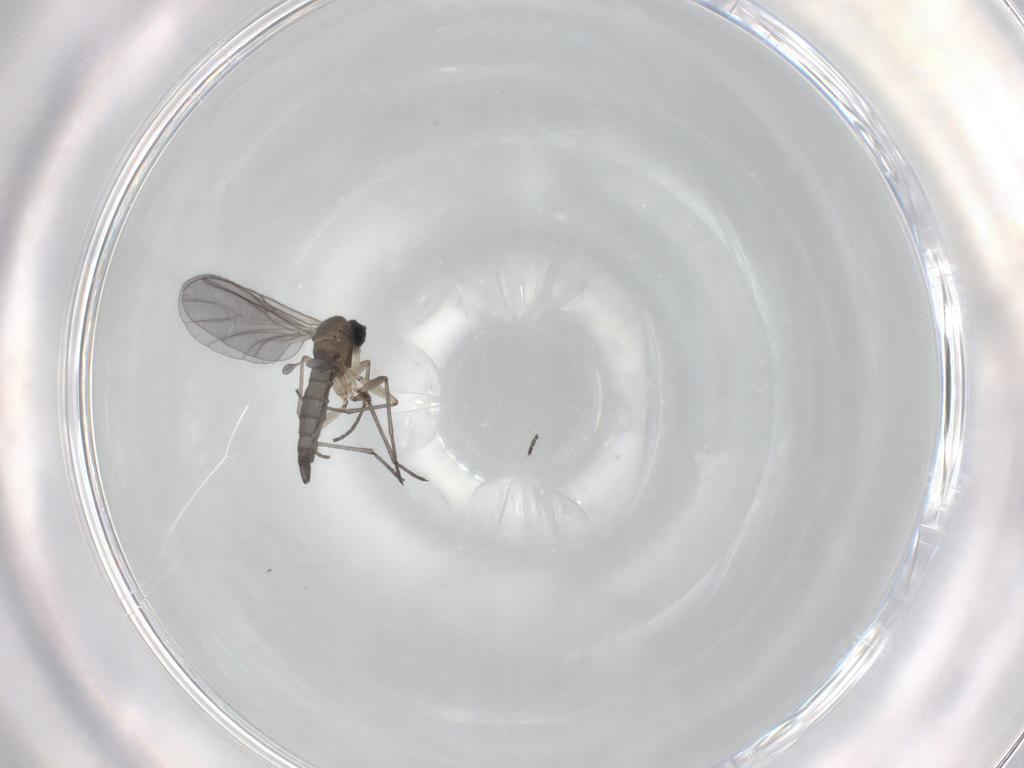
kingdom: Animalia
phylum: Arthropoda
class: Insecta
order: Diptera
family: Sciaridae
